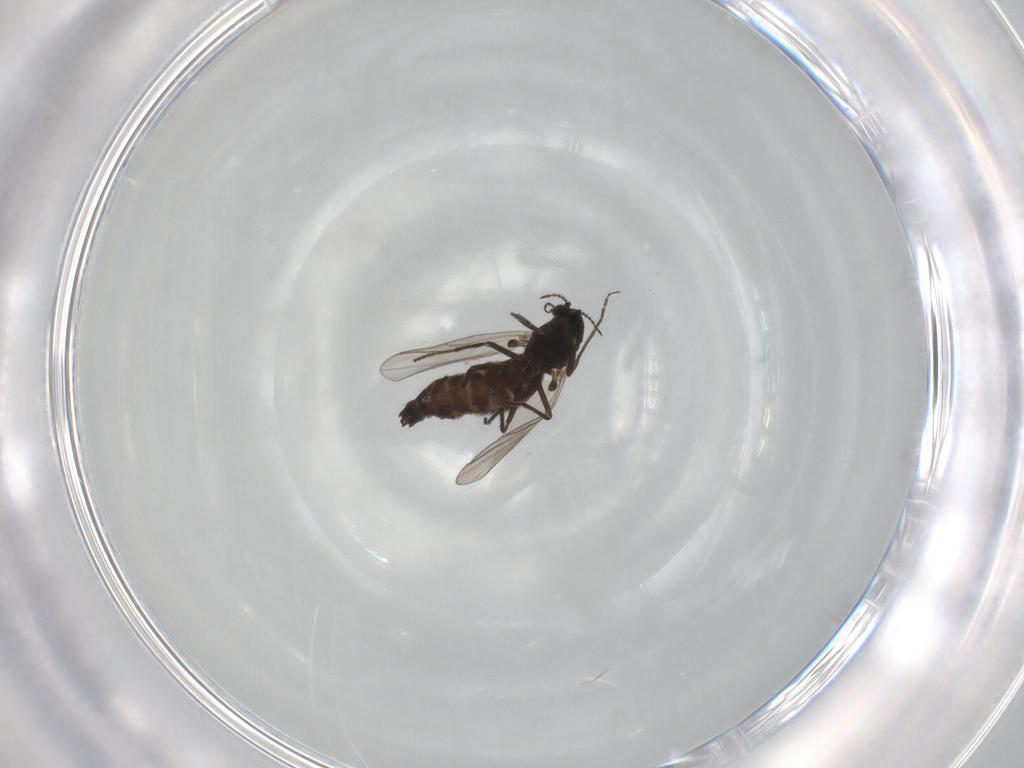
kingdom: Animalia
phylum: Arthropoda
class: Insecta
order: Diptera
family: Chironomidae
